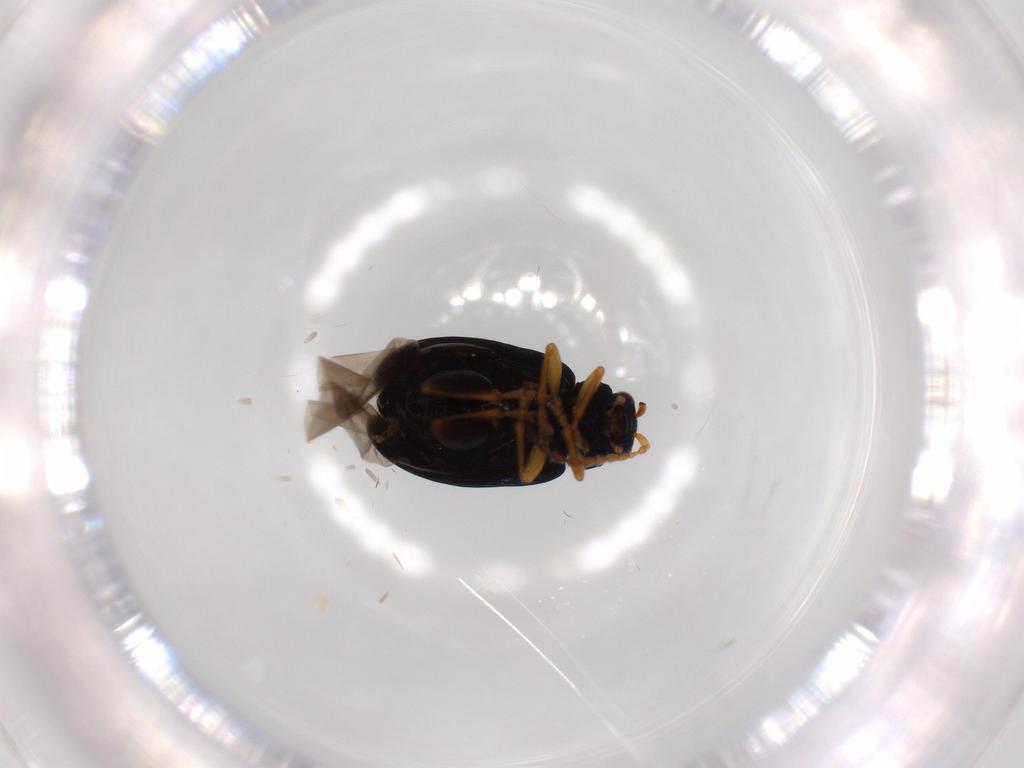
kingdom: Animalia
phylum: Arthropoda
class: Insecta
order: Coleoptera
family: Chrysomelidae
